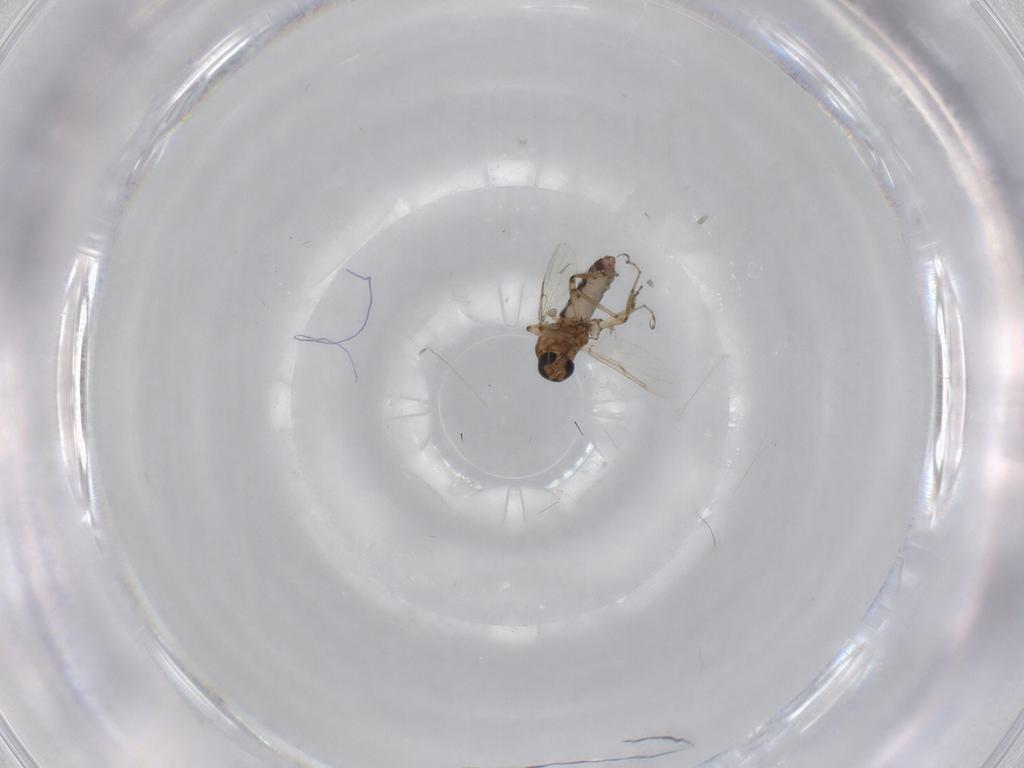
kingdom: Animalia
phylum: Arthropoda
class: Insecta
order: Diptera
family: Ceratopogonidae
